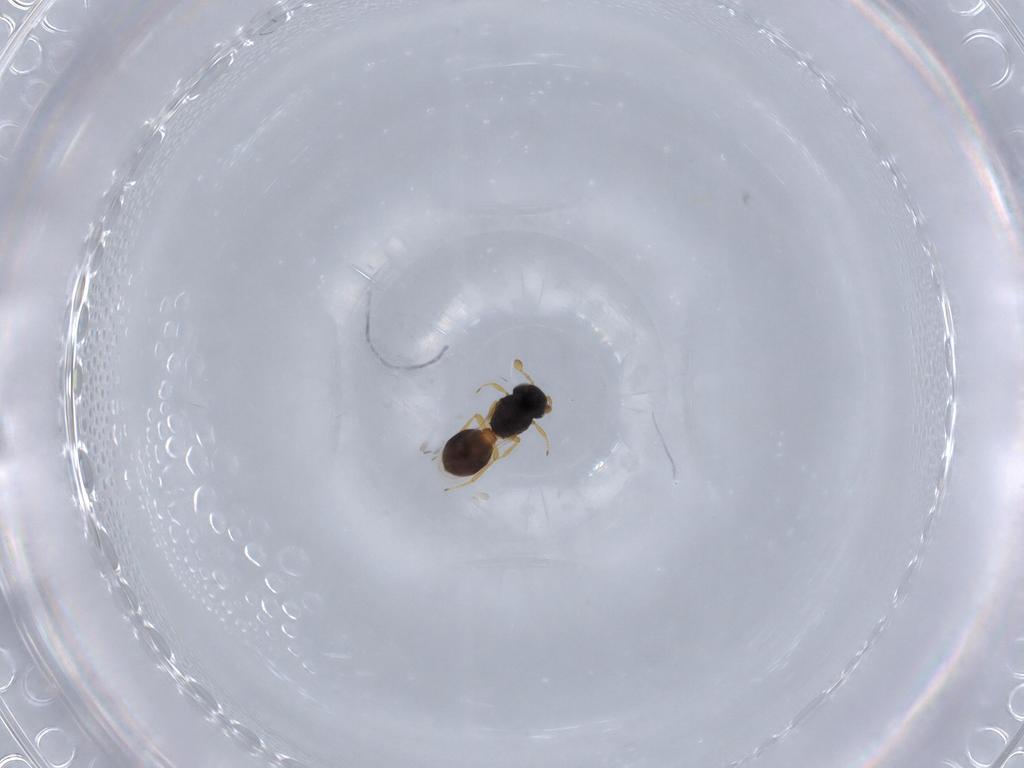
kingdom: Animalia
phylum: Arthropoda
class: Insecta
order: Hymenoptera
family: Scelionidae
